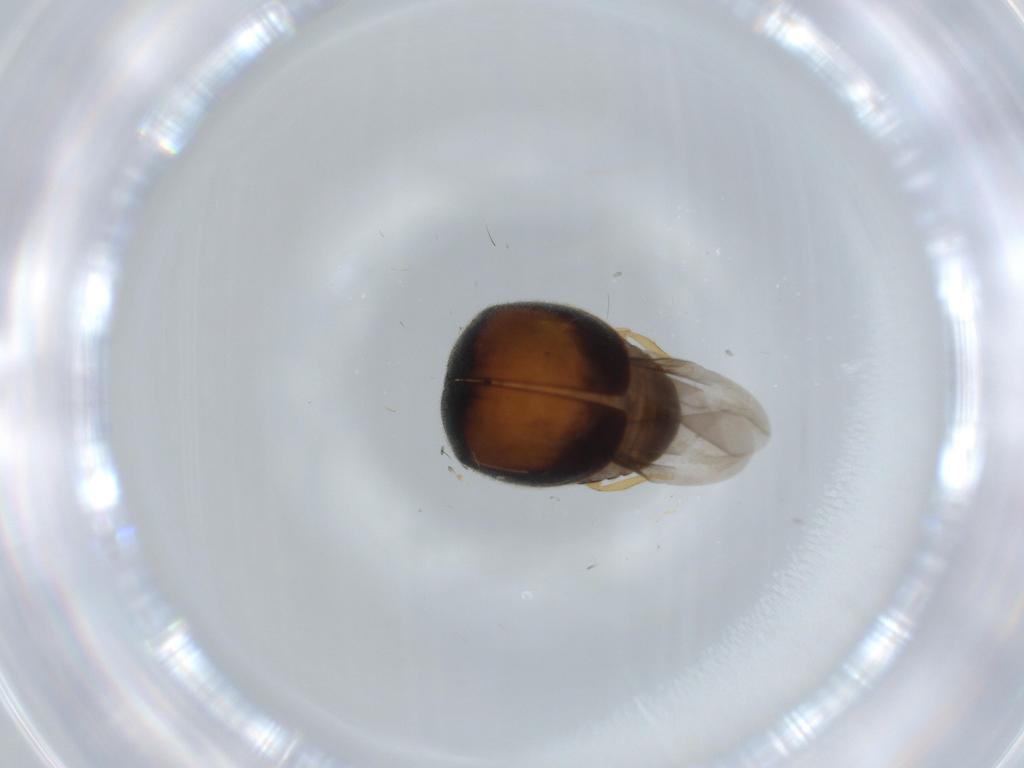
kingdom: Animalia
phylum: Arthropoda
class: Insecta
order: Coleoptera
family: Coccinellidae
